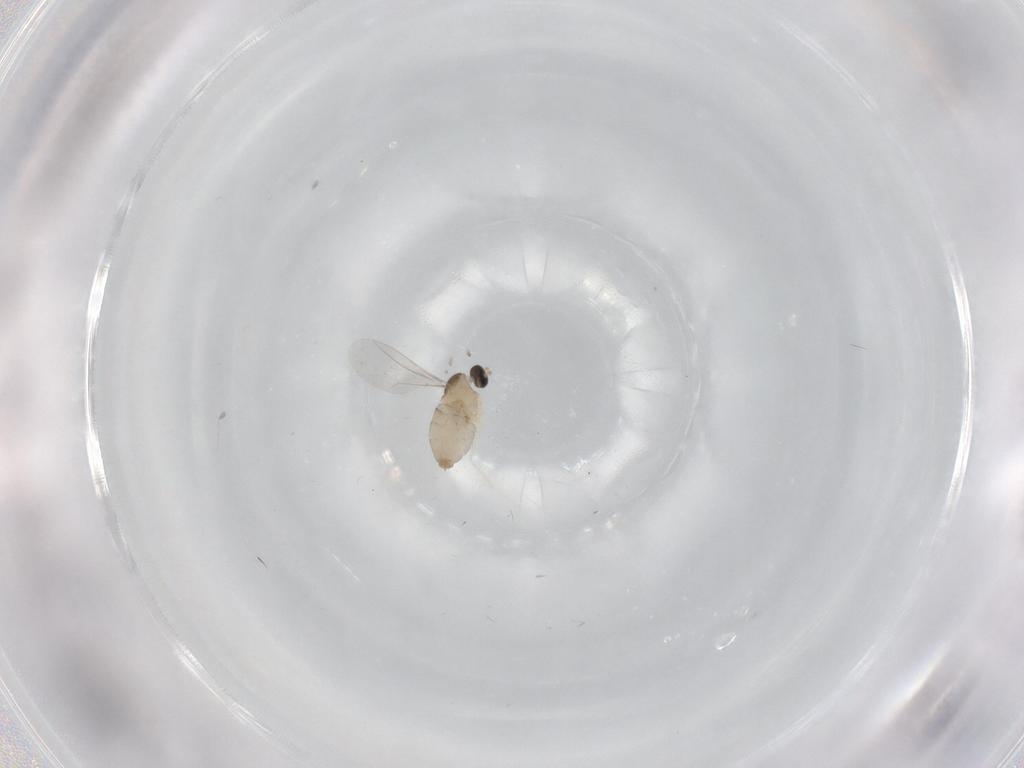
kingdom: Animalia
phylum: Arthropoda
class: Insecta
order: Diptera
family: Cecidomyiidae
